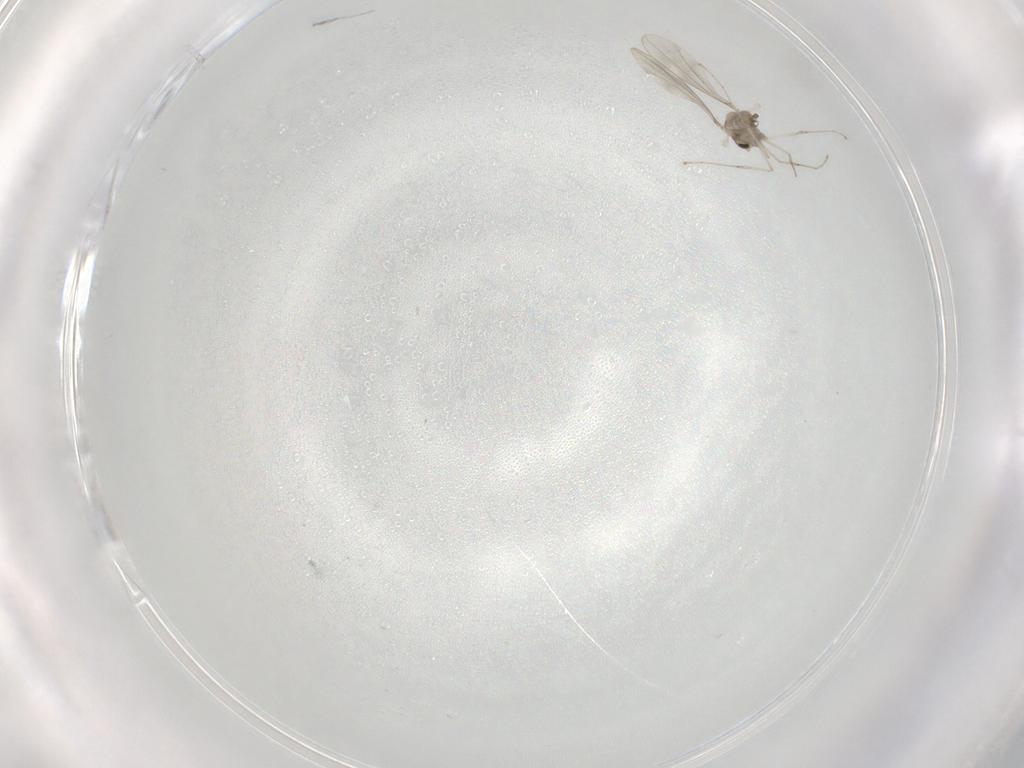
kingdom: Animalia
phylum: Arthropoda
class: Insecta
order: Diptera
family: Cecidomyiidae
